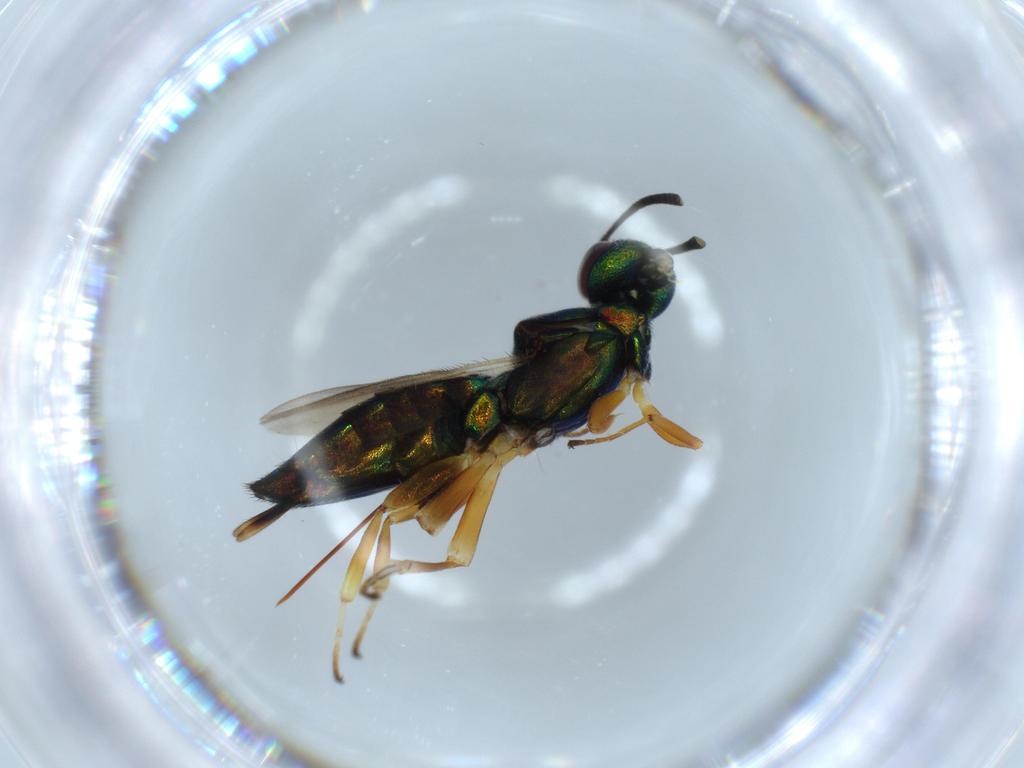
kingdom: Animalia
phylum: Arthropoda
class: Insecta
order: Hymenoptera
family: Eupelmidae
